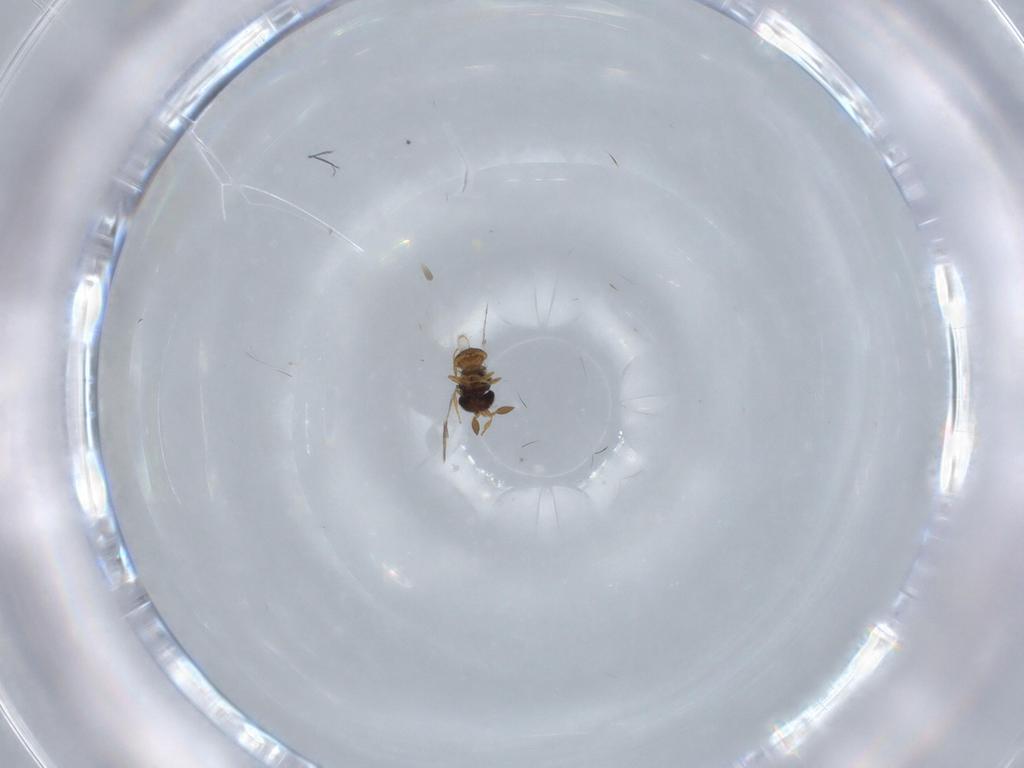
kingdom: Animalia
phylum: Arthropoda
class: Insecta
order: Hymenoptera
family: Scelionidae
